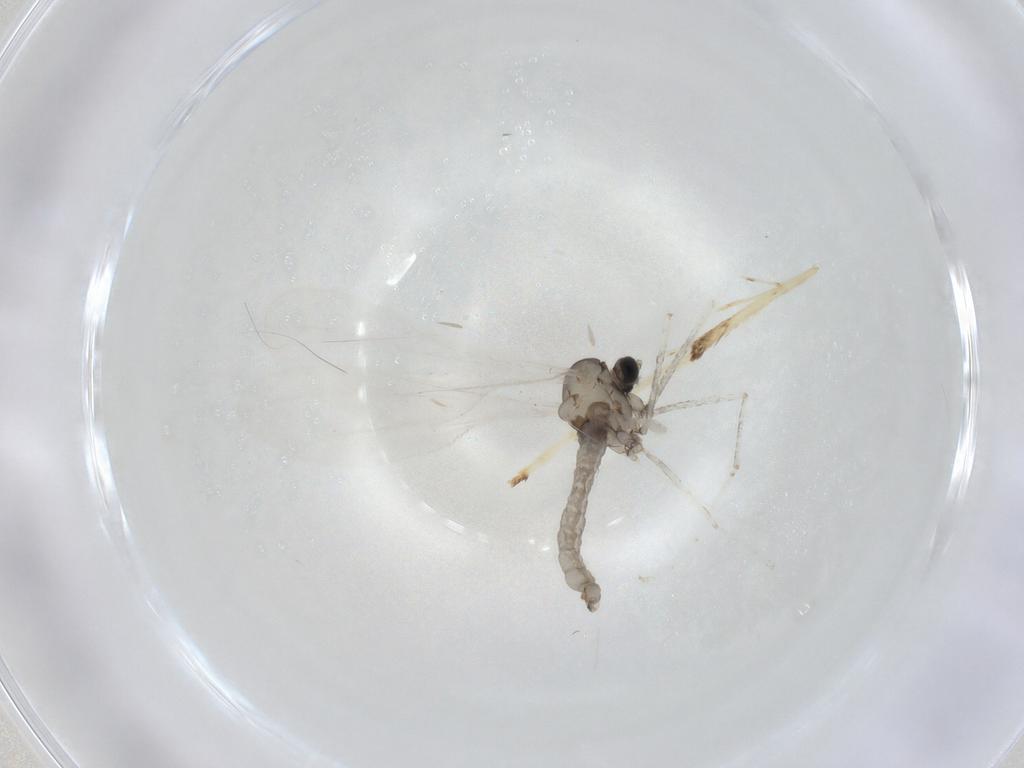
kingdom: Animalia
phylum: Arthropoda
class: Insecta
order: Diptera
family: Cecidomyiidae
